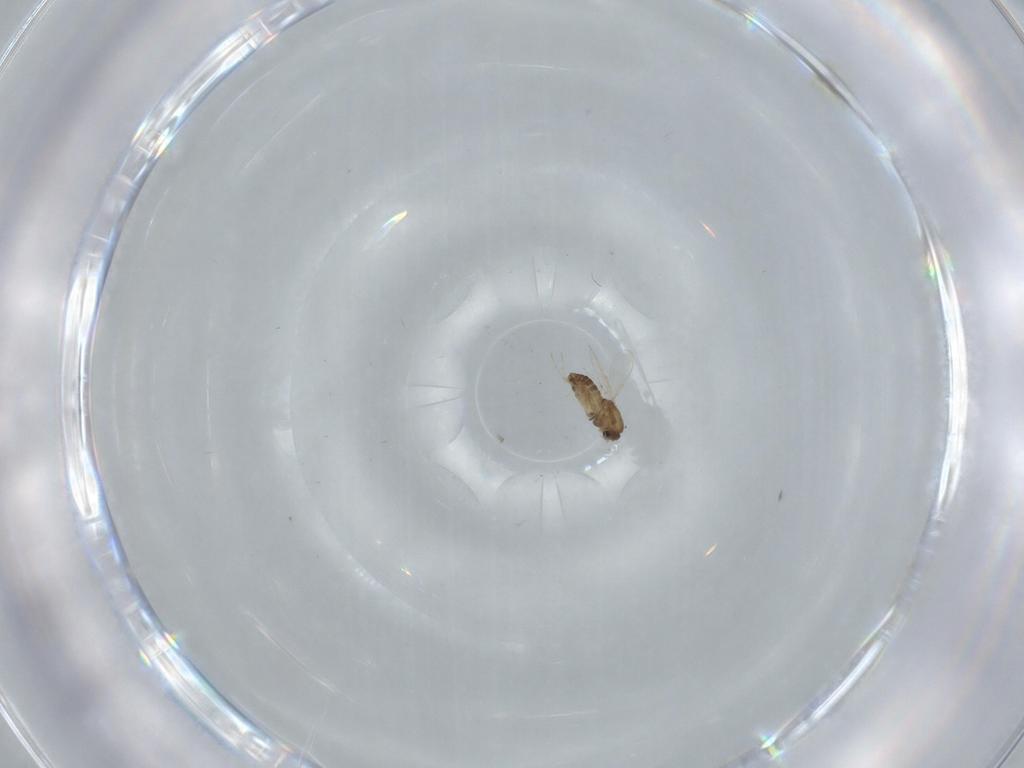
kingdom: Animalia
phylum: Arthropoda
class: Insecta
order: Diptera
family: Chironomidae
